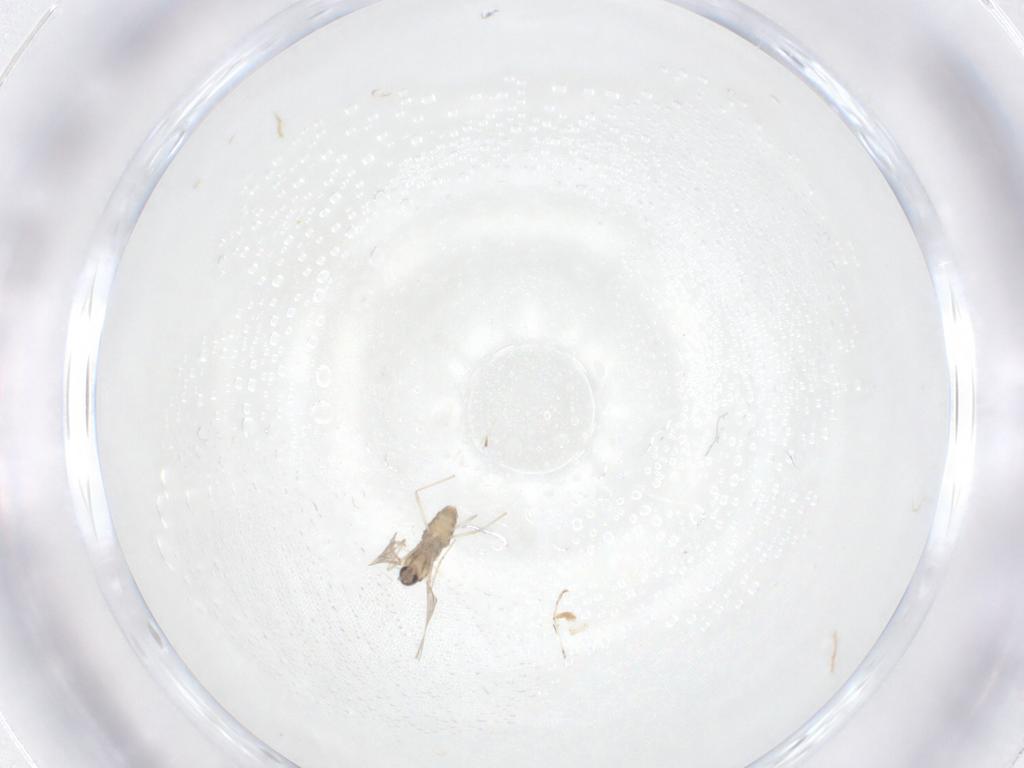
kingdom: Animalia
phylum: Arthropoda
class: Insecta
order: Diptera
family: Cecidomyiidae
